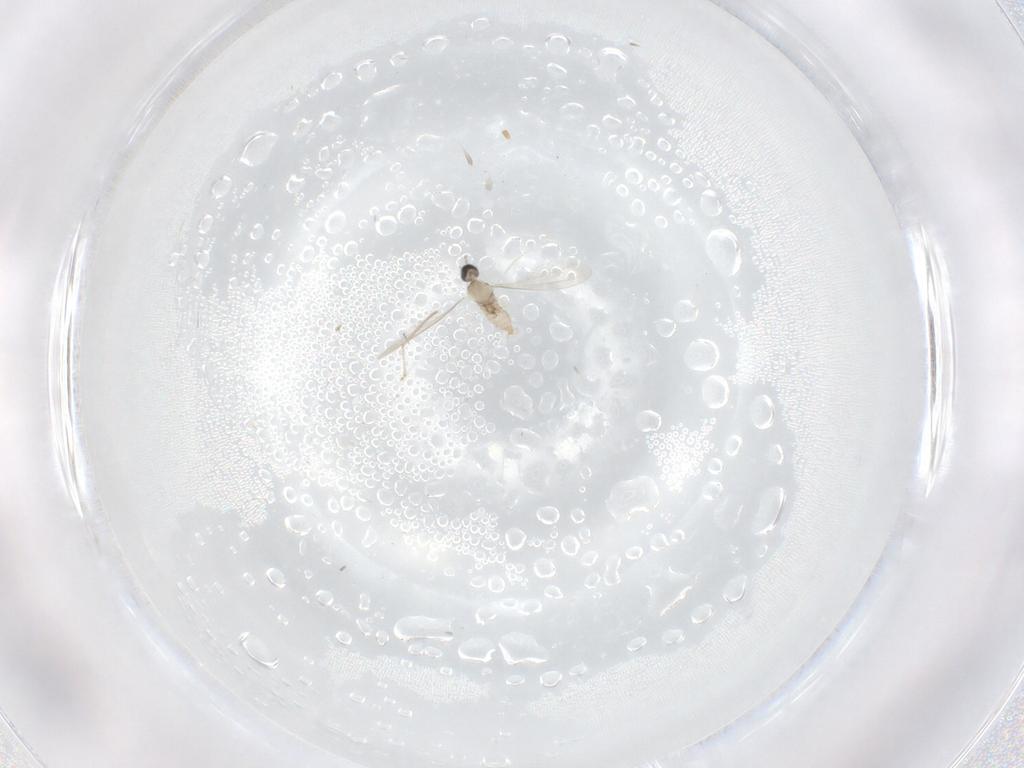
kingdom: Animalia
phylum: Arthropoda
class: Insecta
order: Diptera
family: Cecidomyiidae
